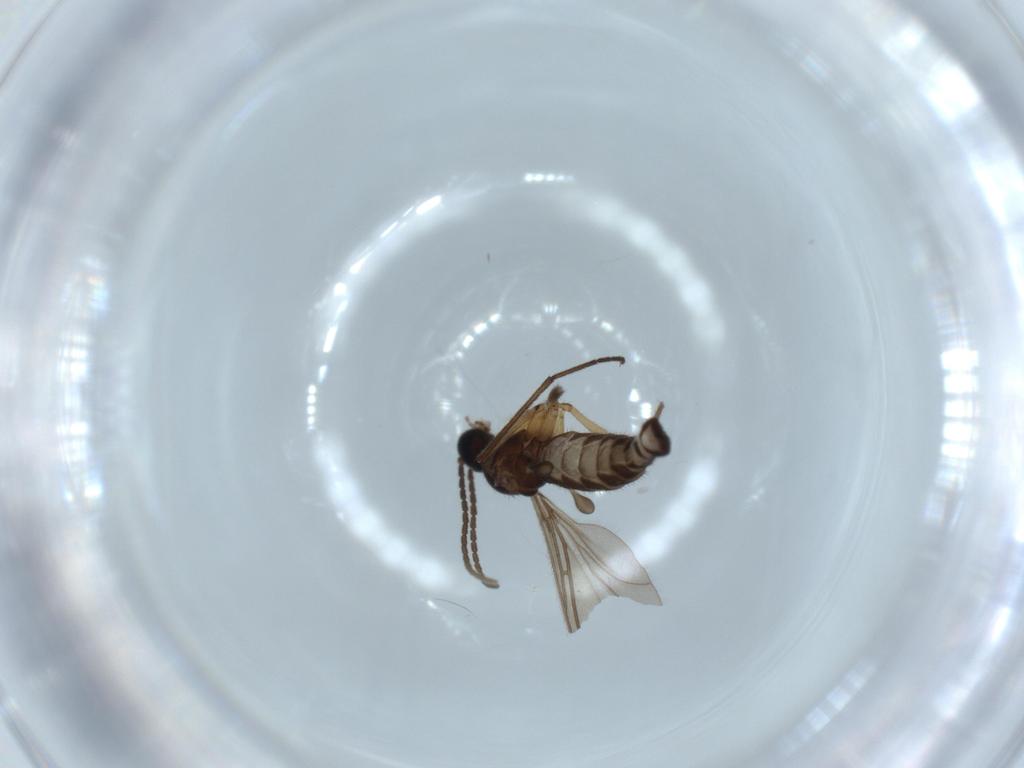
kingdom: Animalia
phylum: Arthropoda
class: Insecta
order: Diptera
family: Sciaridae
